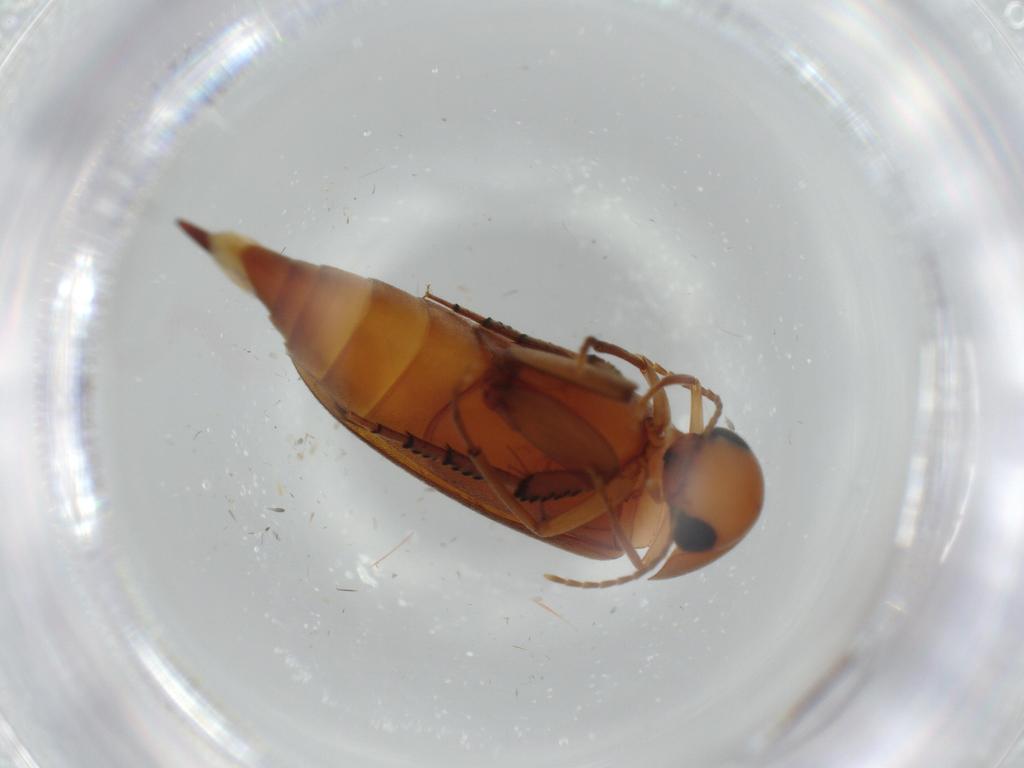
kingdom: Animalia
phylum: Arthropoda
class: Insecta
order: Coleoptera
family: Mordellidae
